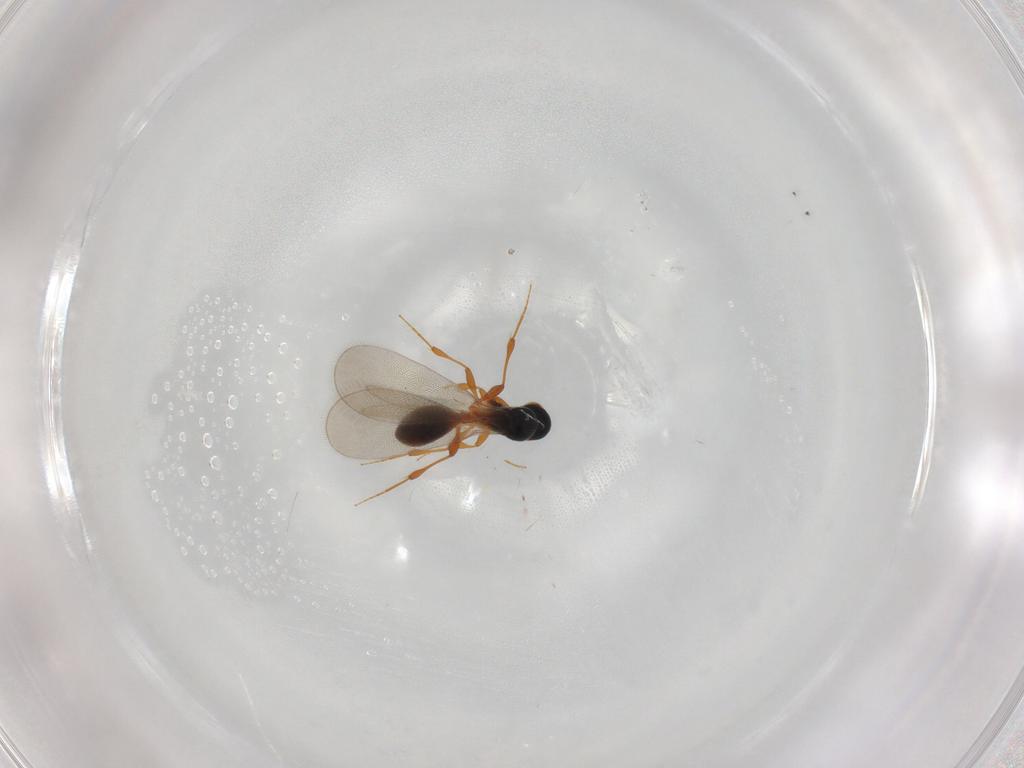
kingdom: Animalia
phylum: Arthropoda
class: Insecta
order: Hymenoptera
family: Platygastridae
